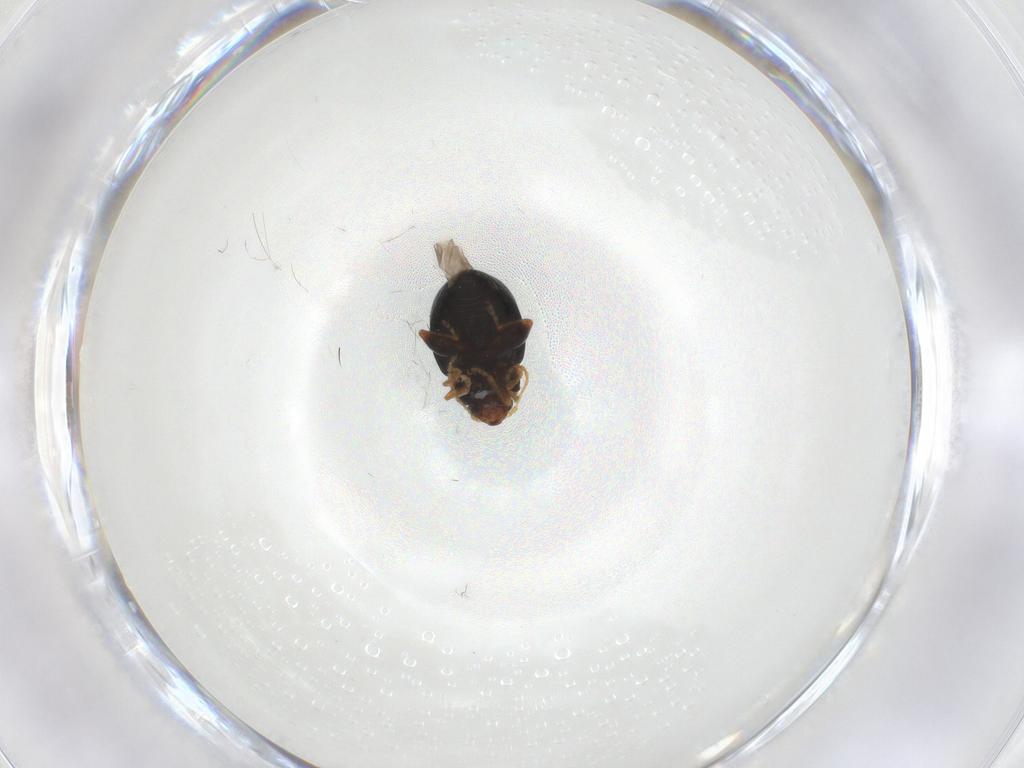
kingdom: Animalia
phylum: Arthropoda
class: Insecta
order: Coleoptera
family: Chrysomelidae
